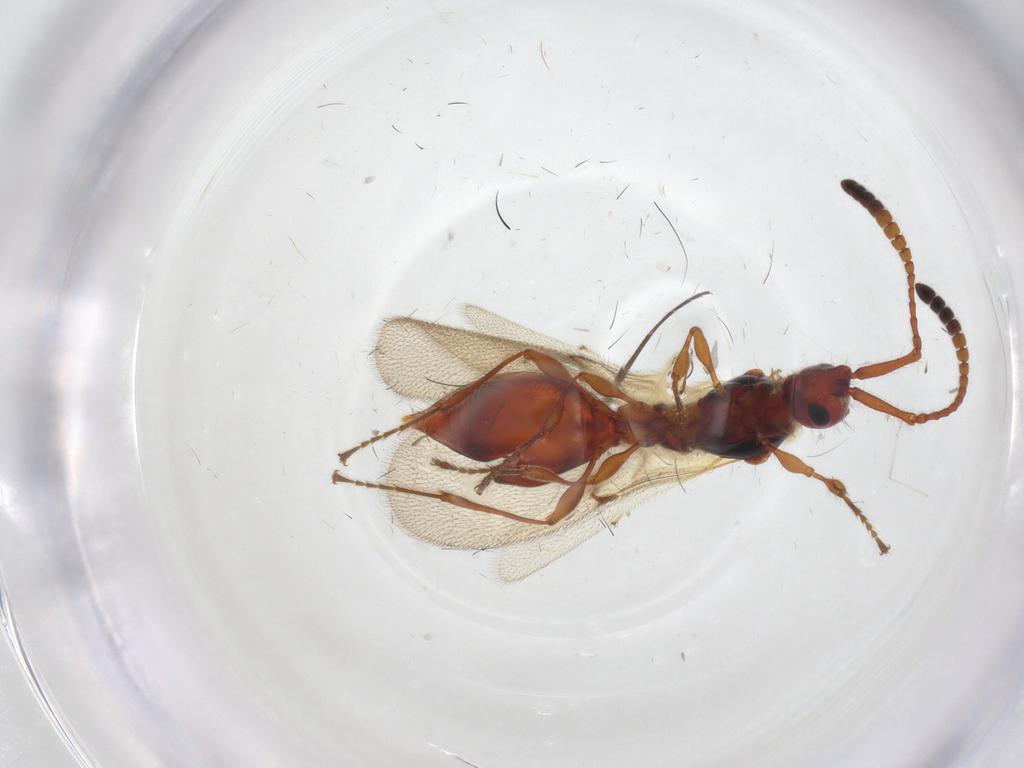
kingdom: Animalia
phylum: Arthropoda
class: Insecta
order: Hymenoptera
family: Diapriidae
